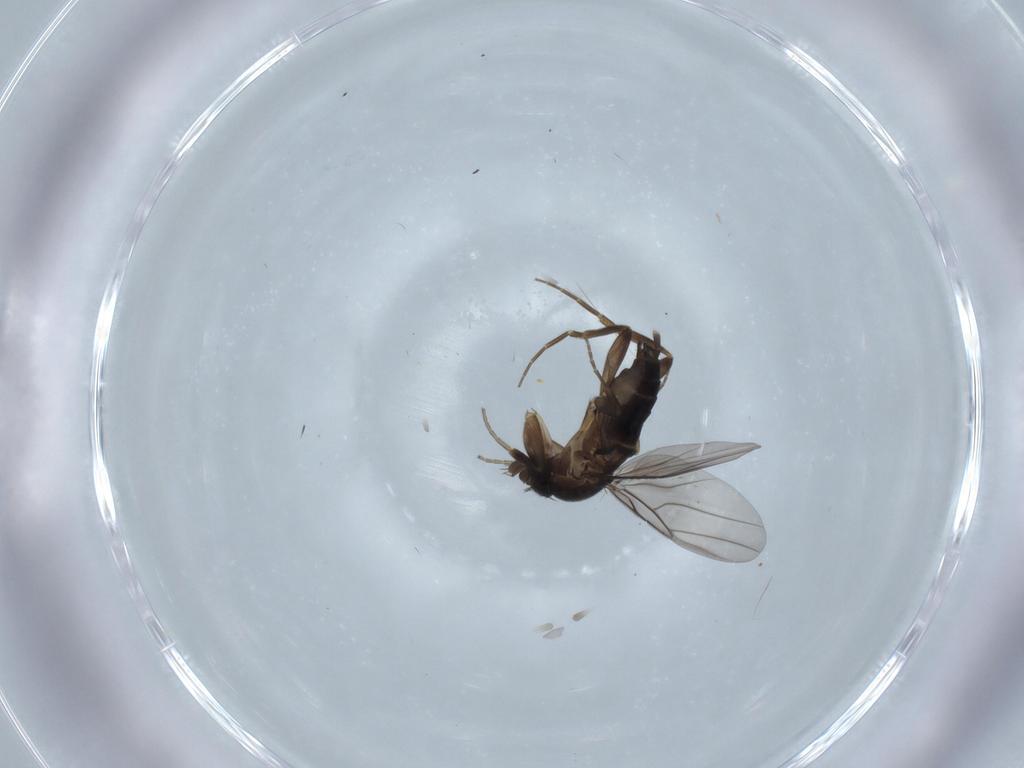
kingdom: Animalia
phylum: Arthropoda
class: Insecta
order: Diptera
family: Phoridae
